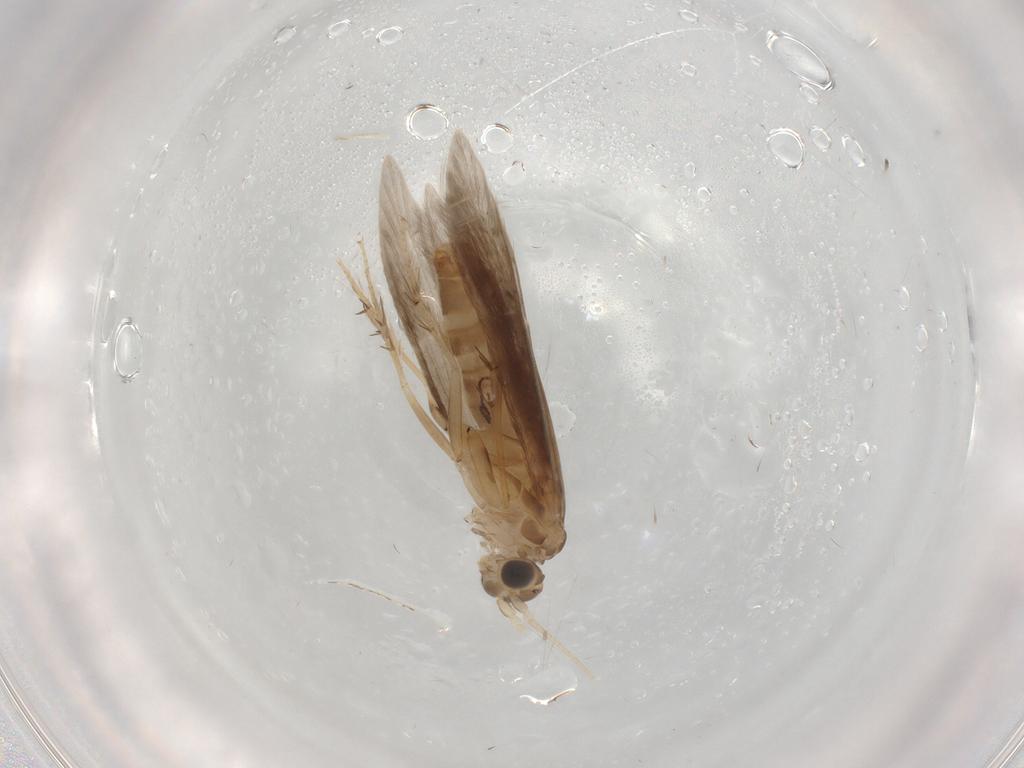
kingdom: Animalia
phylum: Arthropoda
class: Insecta
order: Trichoptera
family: Glossosomatidae
